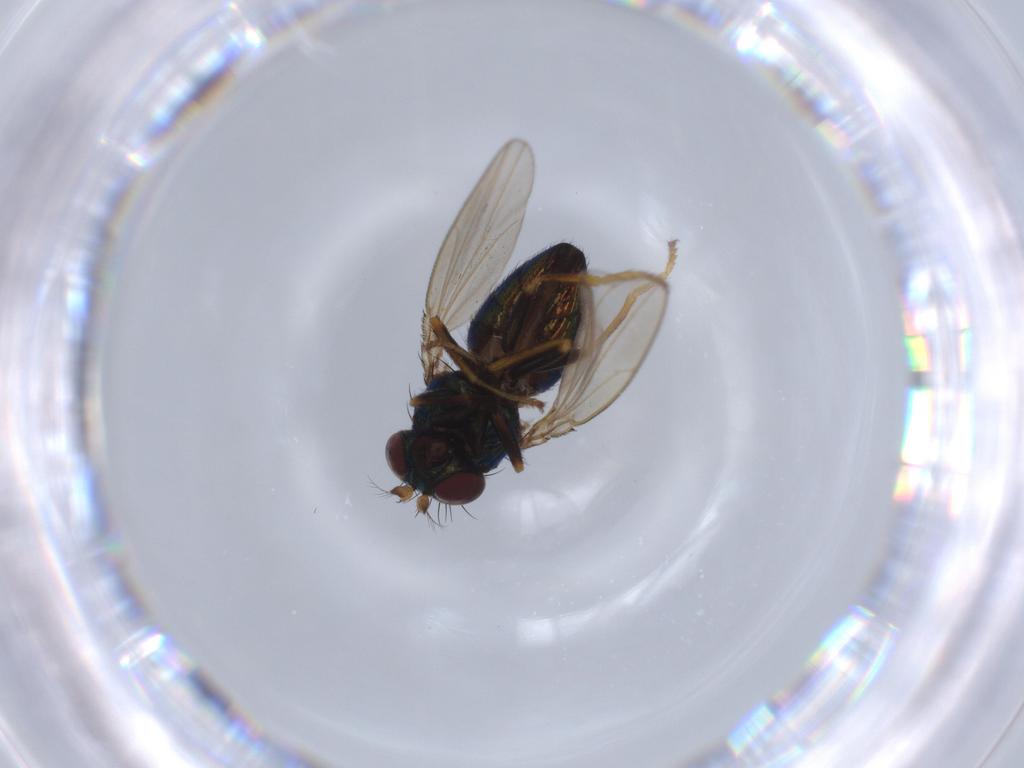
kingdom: Animalia
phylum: Arthropoda
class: Insecta
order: Diptera
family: Ephydridae
